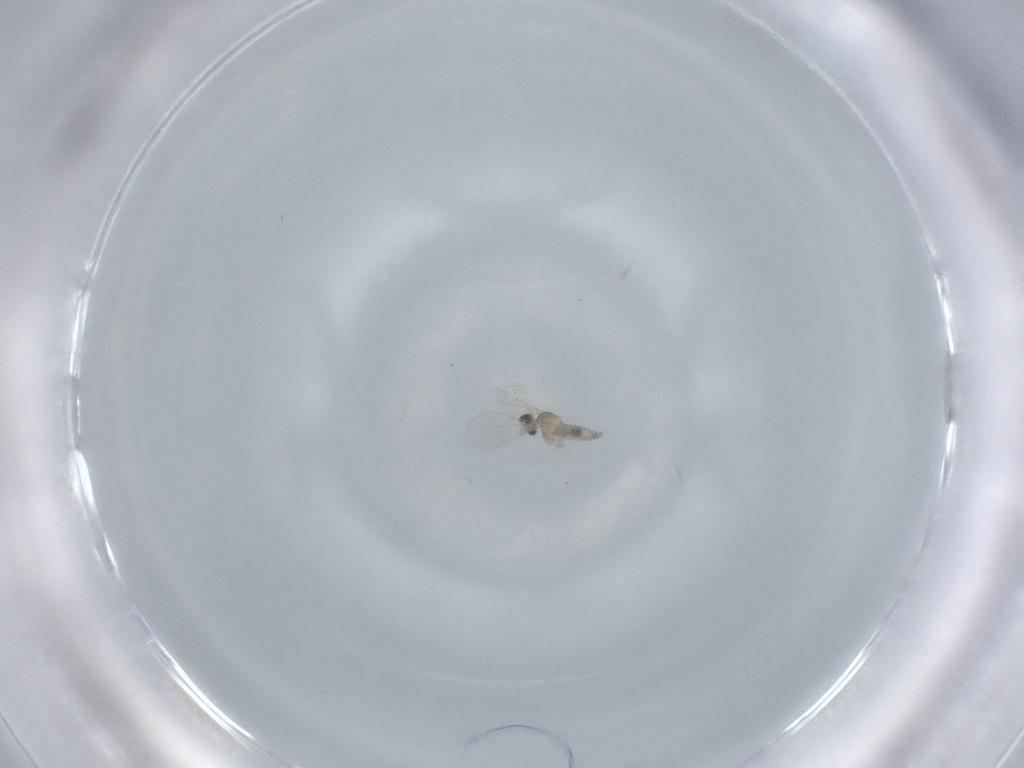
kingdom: Animalia
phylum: Arthropoda
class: Insecta
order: Diptera
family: Cecidomyiidae
